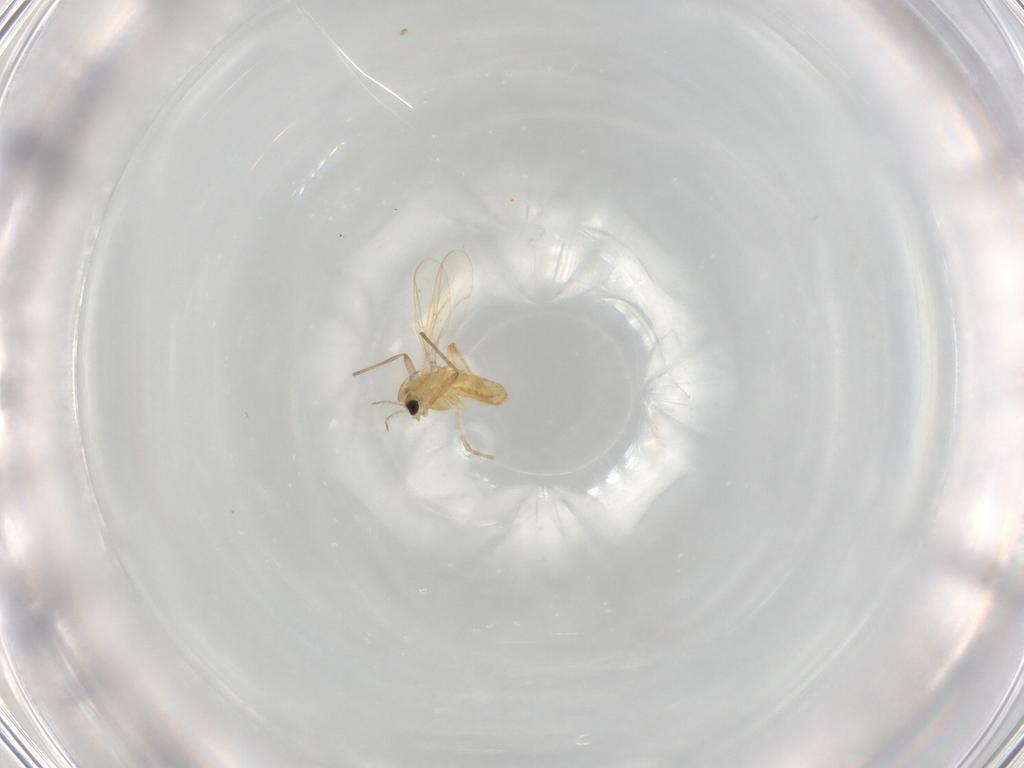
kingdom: Animalia
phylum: Arthropoda
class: Insecta
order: Diptera
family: Chironomidae
